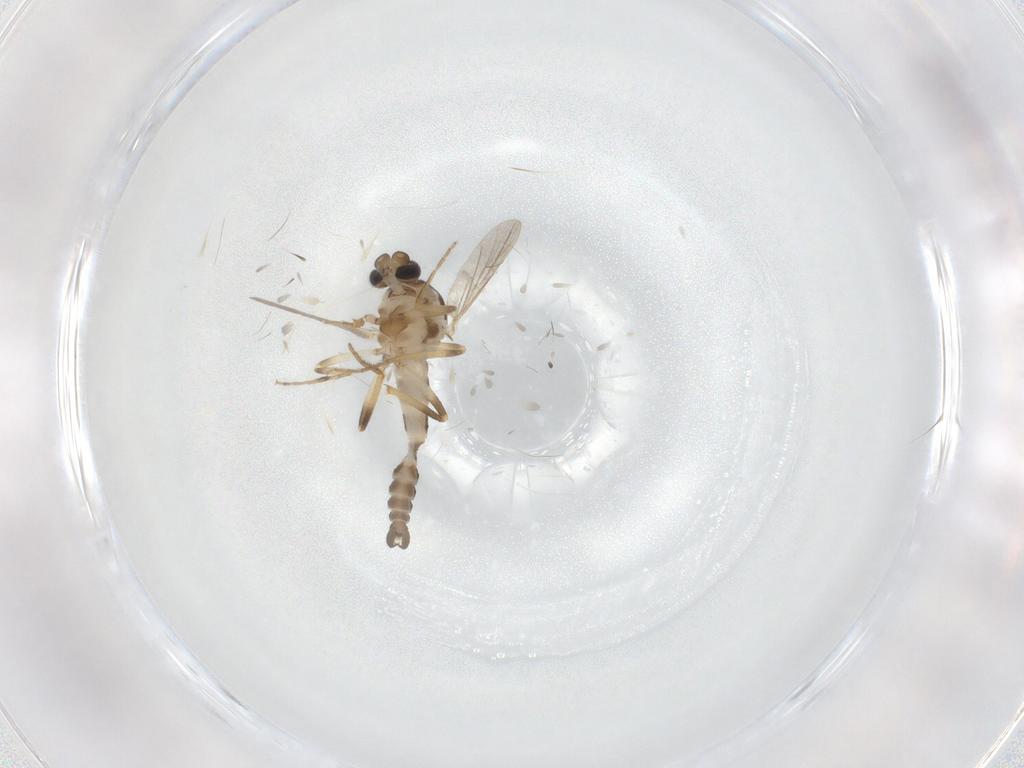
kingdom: Animalia
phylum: Arthropoda
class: Insecta
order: Diptera
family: Ceratopogonidae
